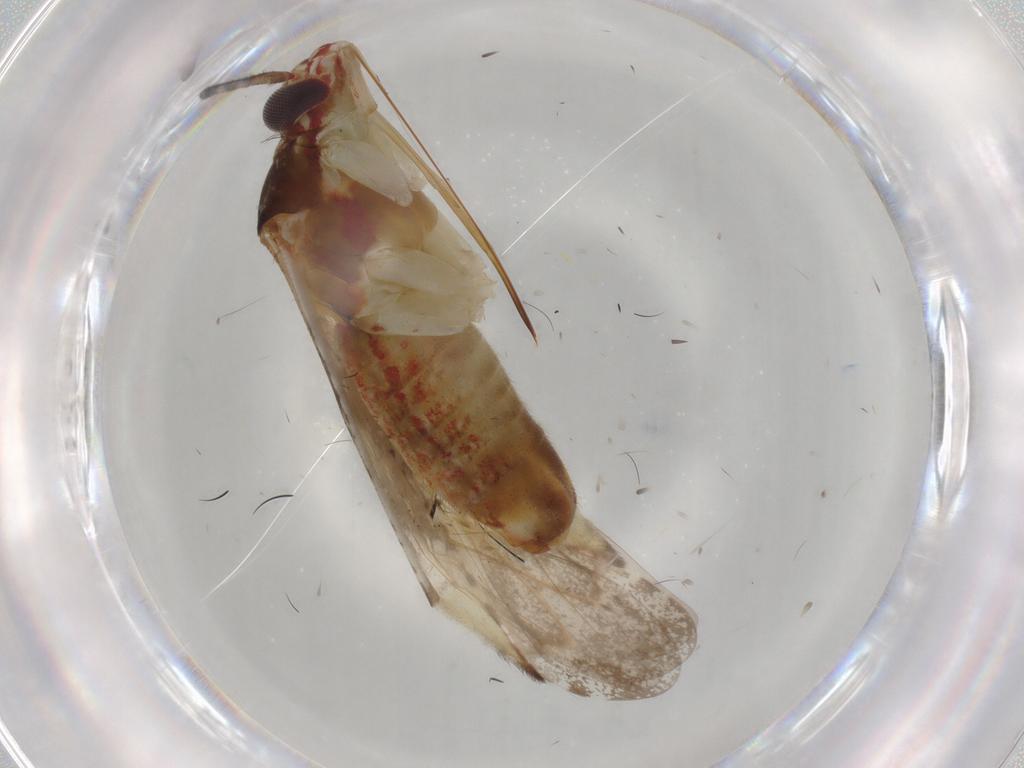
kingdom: Animalia
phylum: Arthropoda
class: Insecta
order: Hemiptera
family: Miridae
